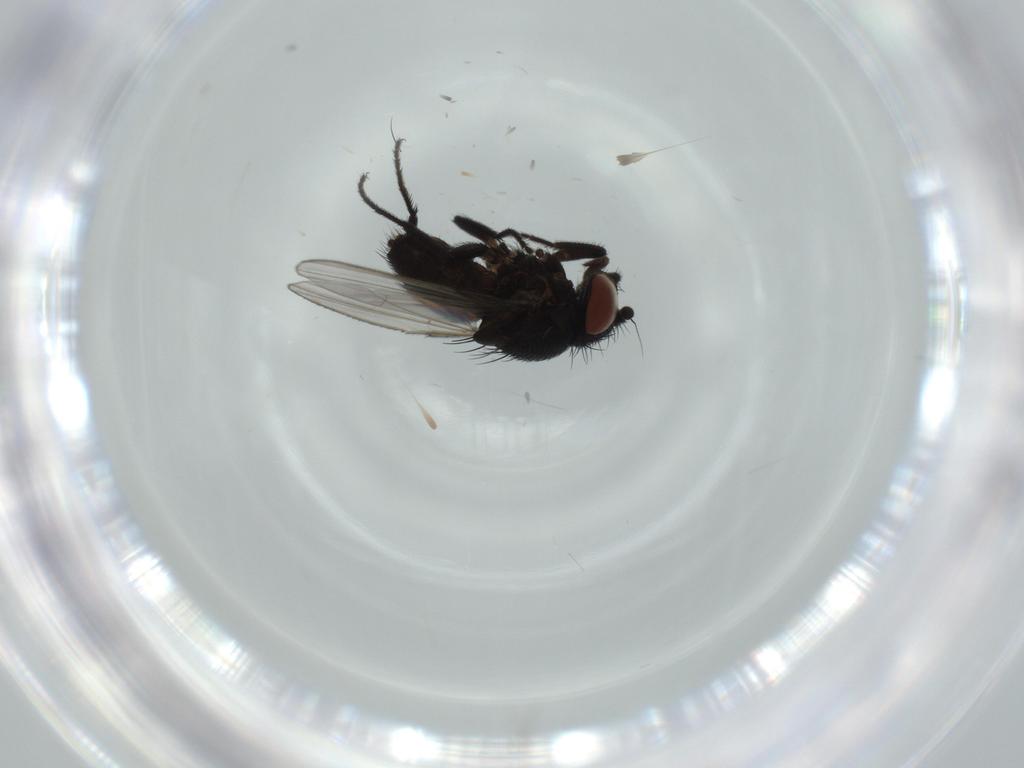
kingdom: Animalia
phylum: Arthropoda
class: Insecta
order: Diptera
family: Milichiidae
